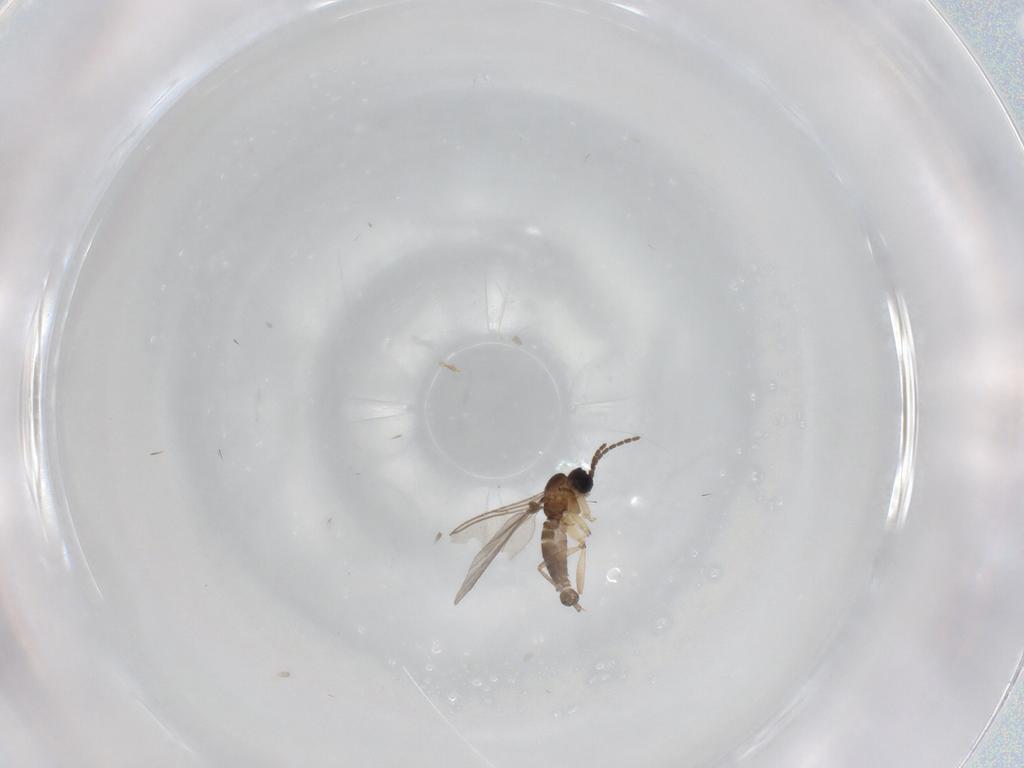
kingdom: Animalia
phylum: Arthropoda
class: Insecta
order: Diptera
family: Sciaridae
